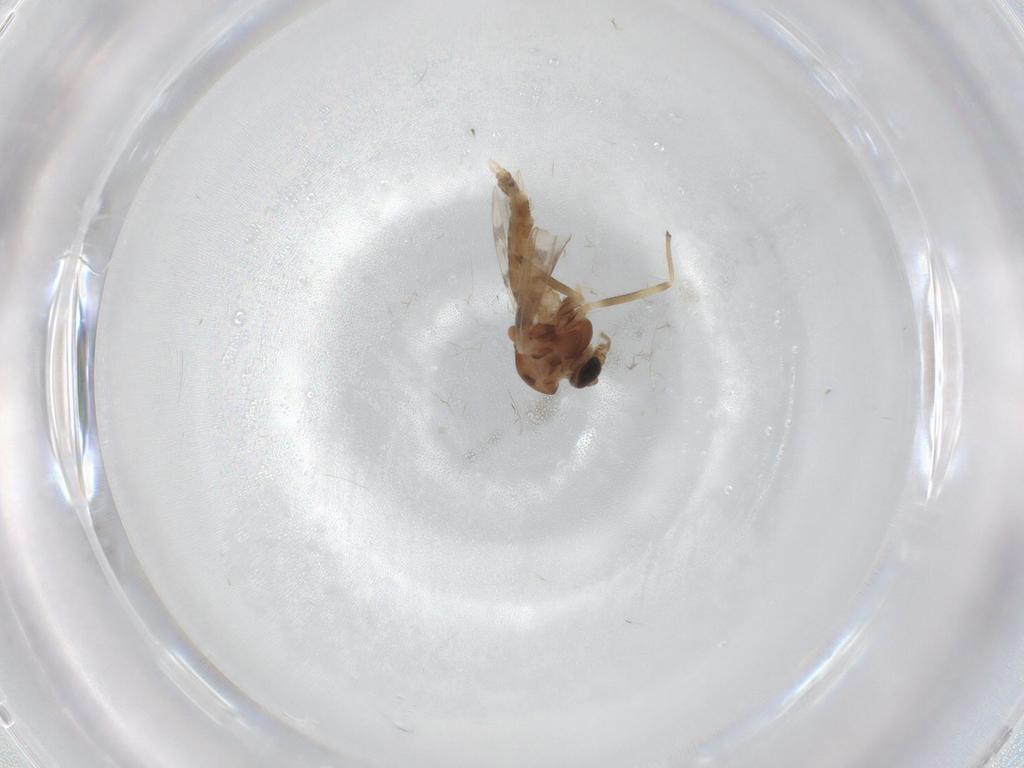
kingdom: Animalia
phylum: Arthropoda
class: Insecta
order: Diptera
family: Chironomidae
